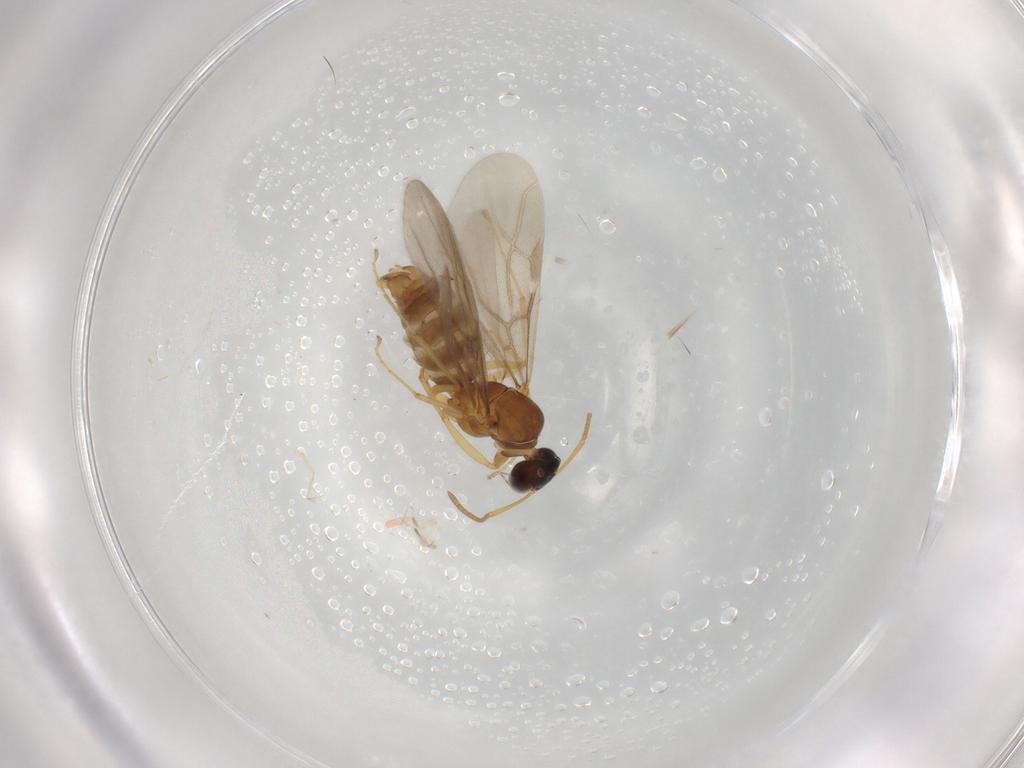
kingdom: Animalia
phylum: Arthropoda
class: Insecta
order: Hymenoptera
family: Formicidae
